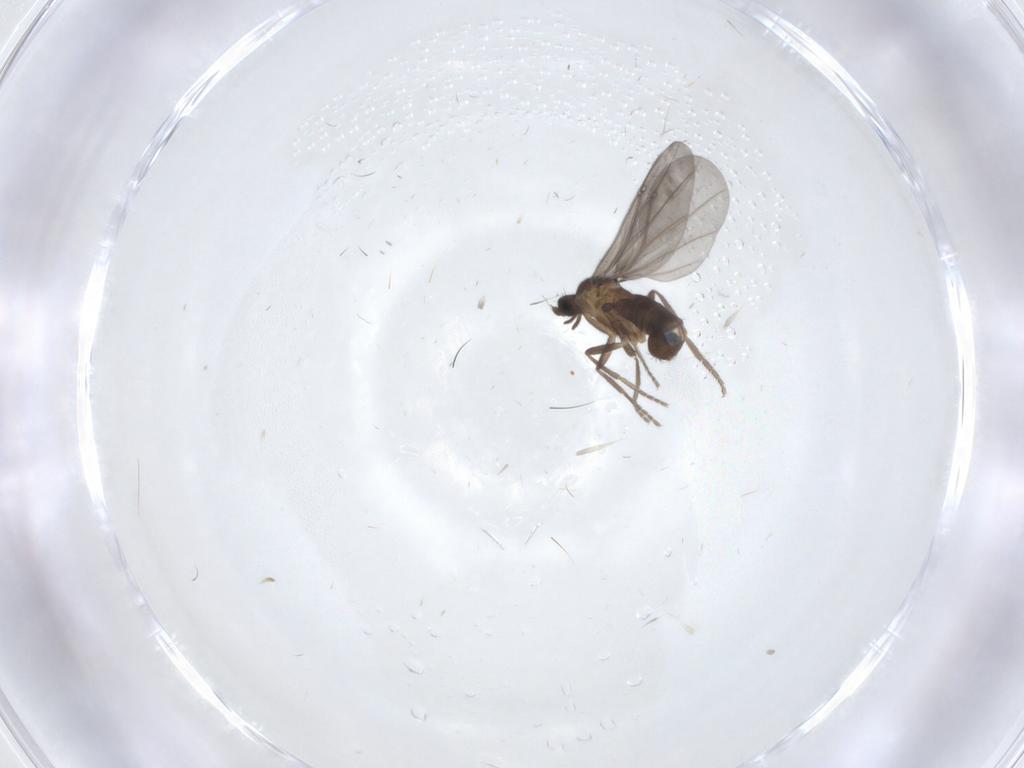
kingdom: Animalia
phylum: Arthropoda
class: Insecta
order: Diptera
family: Phoridae
